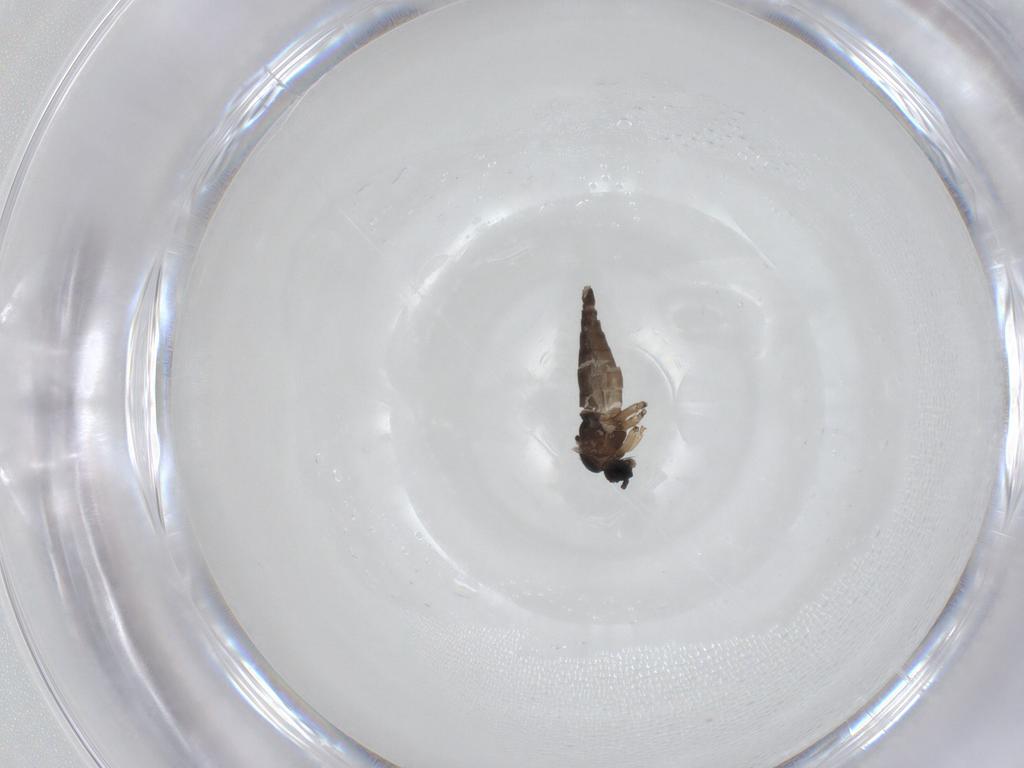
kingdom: Animalia
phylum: Arthropoda
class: Insecta
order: Diptera
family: Sciaridae
